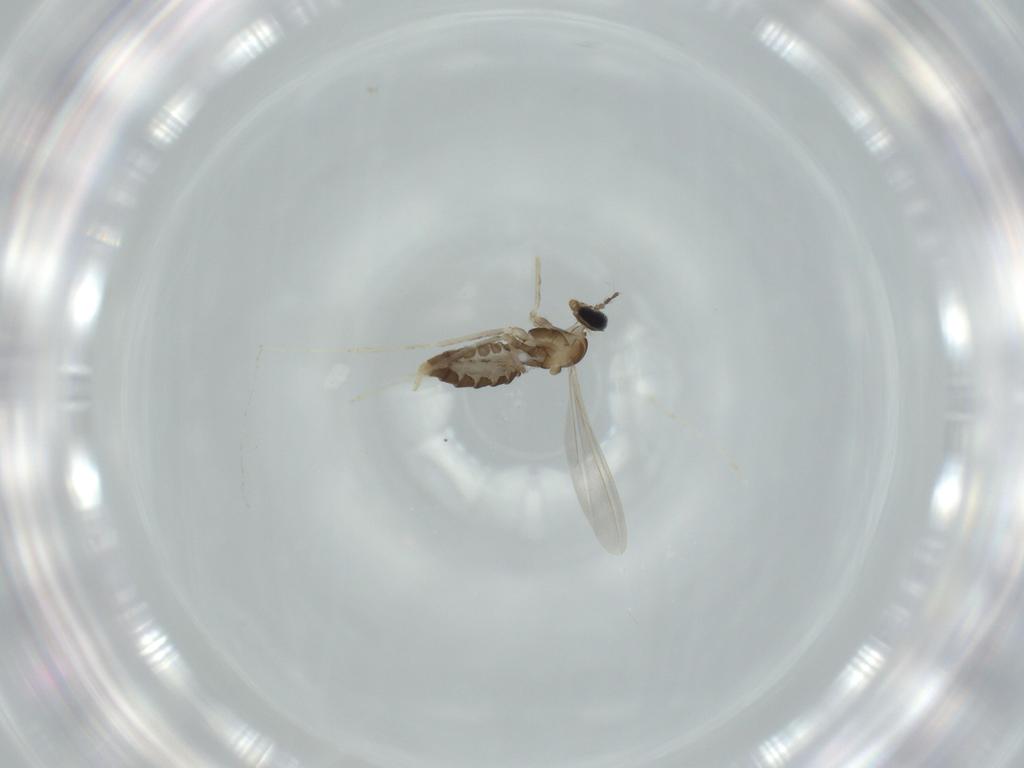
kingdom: Animalia
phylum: Arthropoda
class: Insecta
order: Diptera
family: Cecidomyiidae
